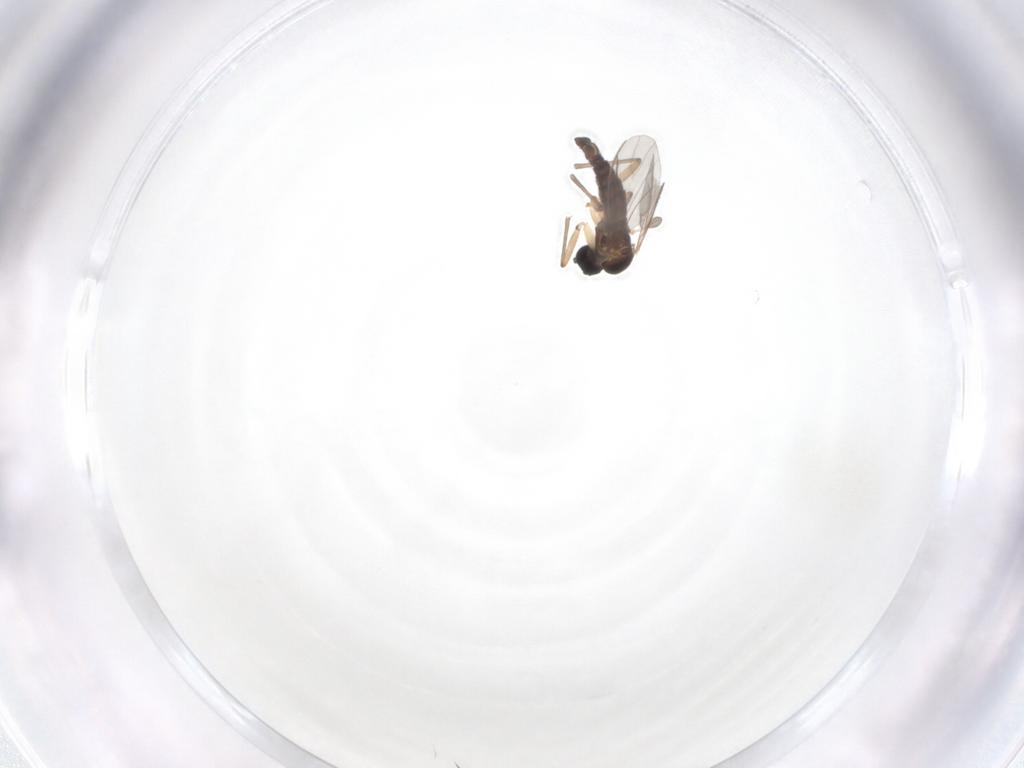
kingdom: Animalia
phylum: Arthropoda
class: Insecta
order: Diptera
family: Sciaridae
